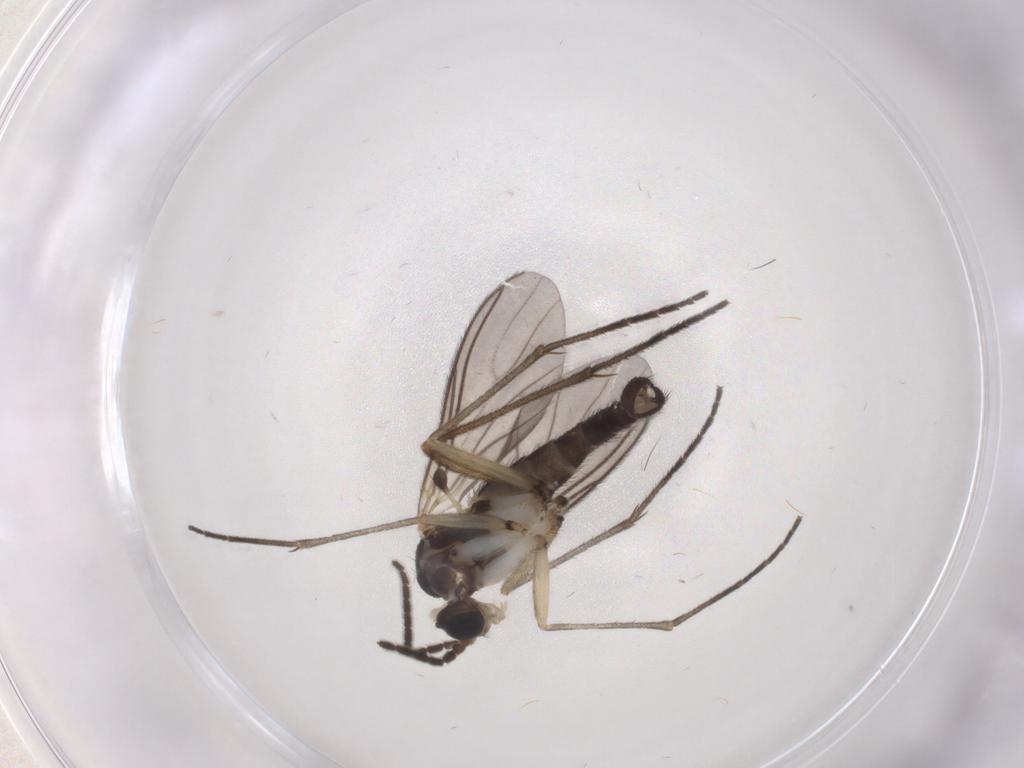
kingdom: Animalia
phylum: Arthropoda
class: Insecta
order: Diptera
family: Sciaridae
